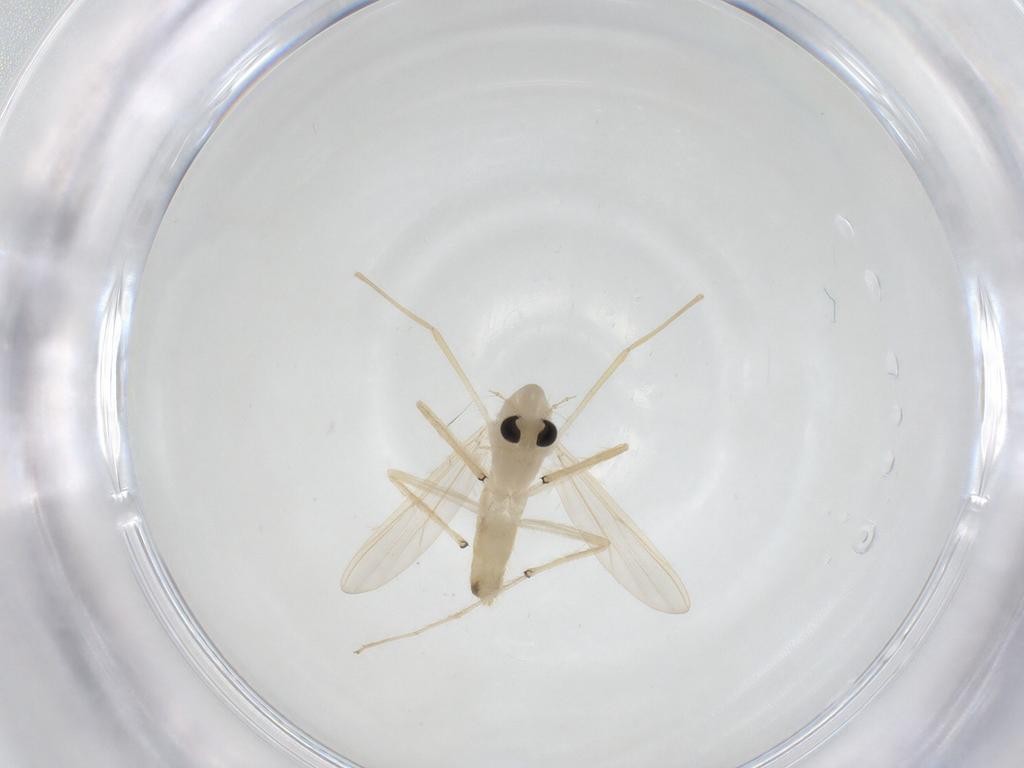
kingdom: Animalia
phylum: Arthropoda
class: Insecta
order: Diptera
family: Chironomidae
